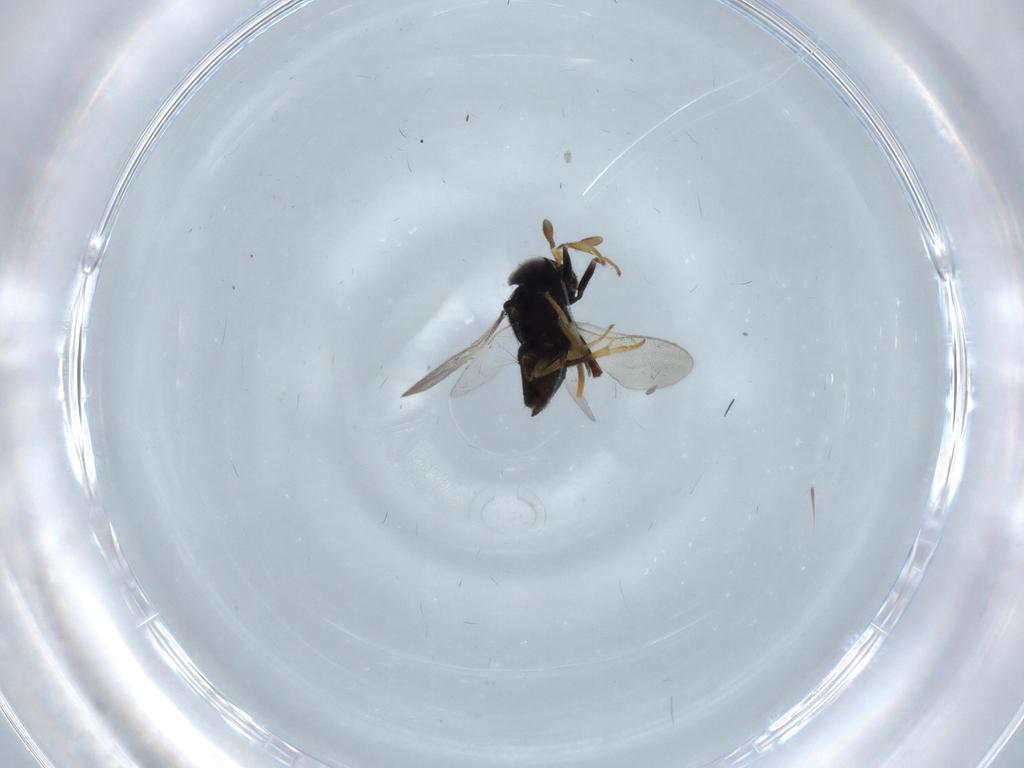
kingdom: Animalia
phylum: Arthropoda
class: Insecta
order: Hymenoptera
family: Encyrtidae
